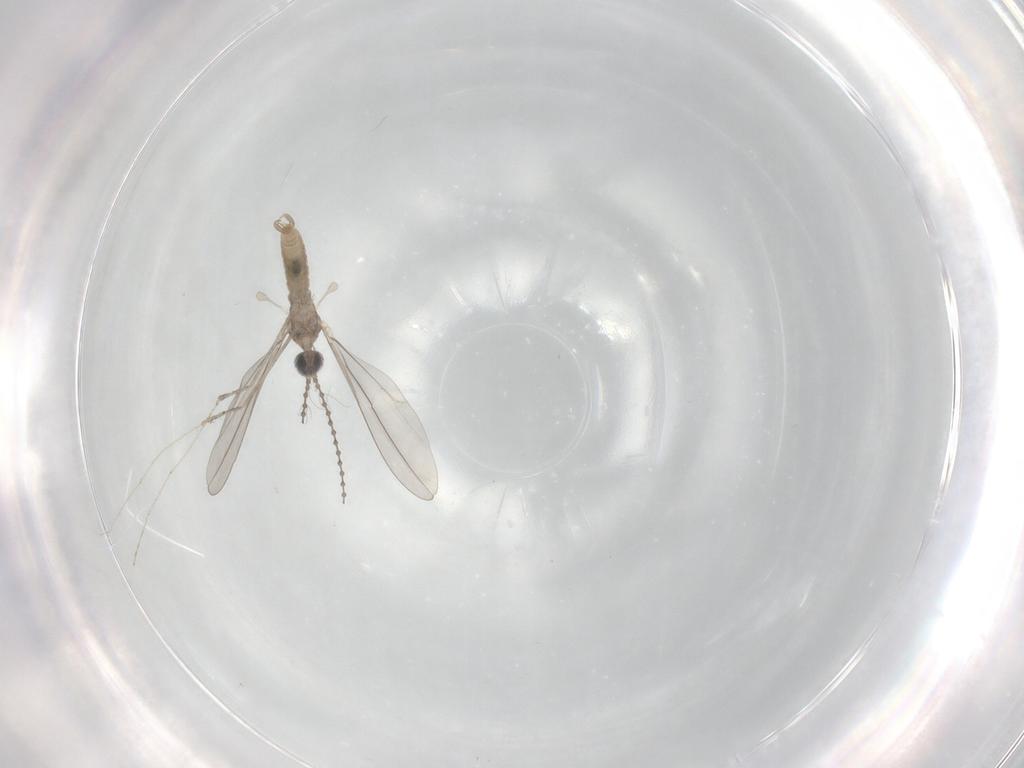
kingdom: Animalia
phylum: Arthropoda
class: Insecta
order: Diptera
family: Cecidomyiidae
